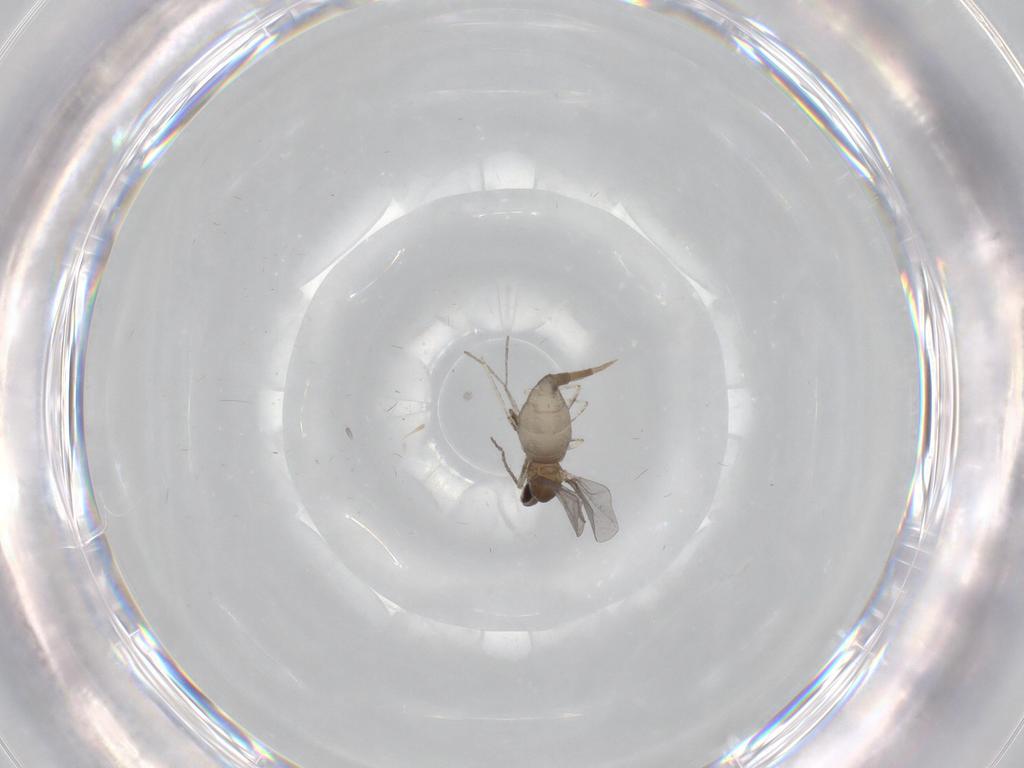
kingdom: Animalia
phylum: Arthropoda
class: Insecta
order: Diptera
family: Cecidomyiidae
